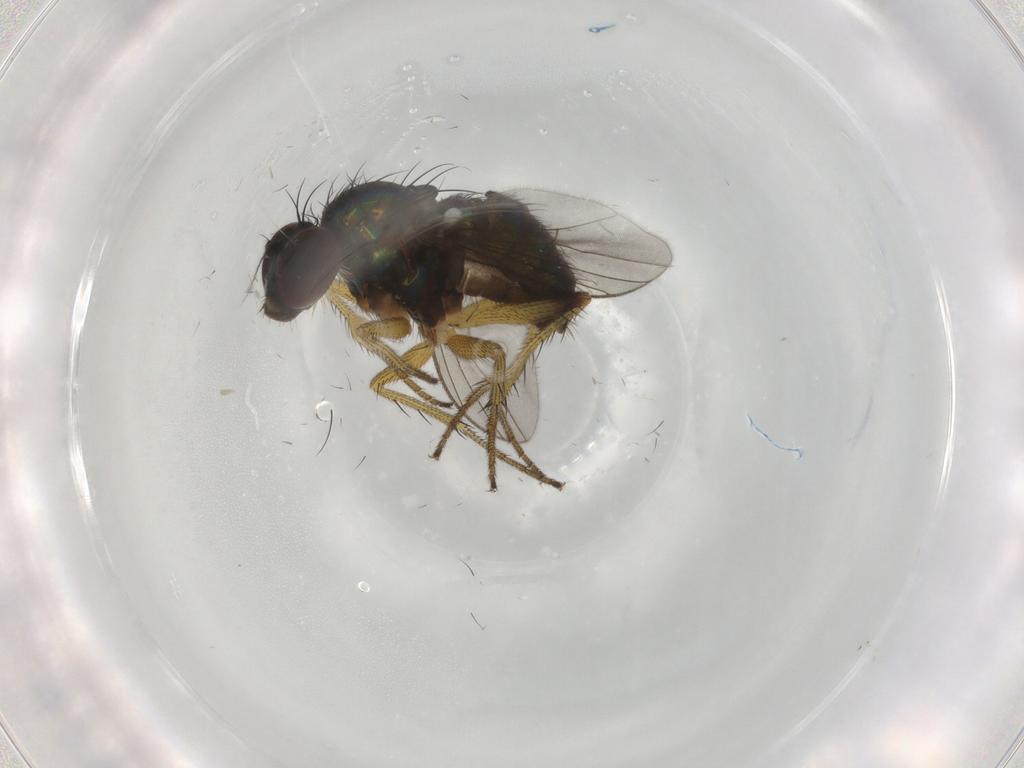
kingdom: Animalia
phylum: Arthropoda
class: Insecta
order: Diptera
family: Dolichopodidae
